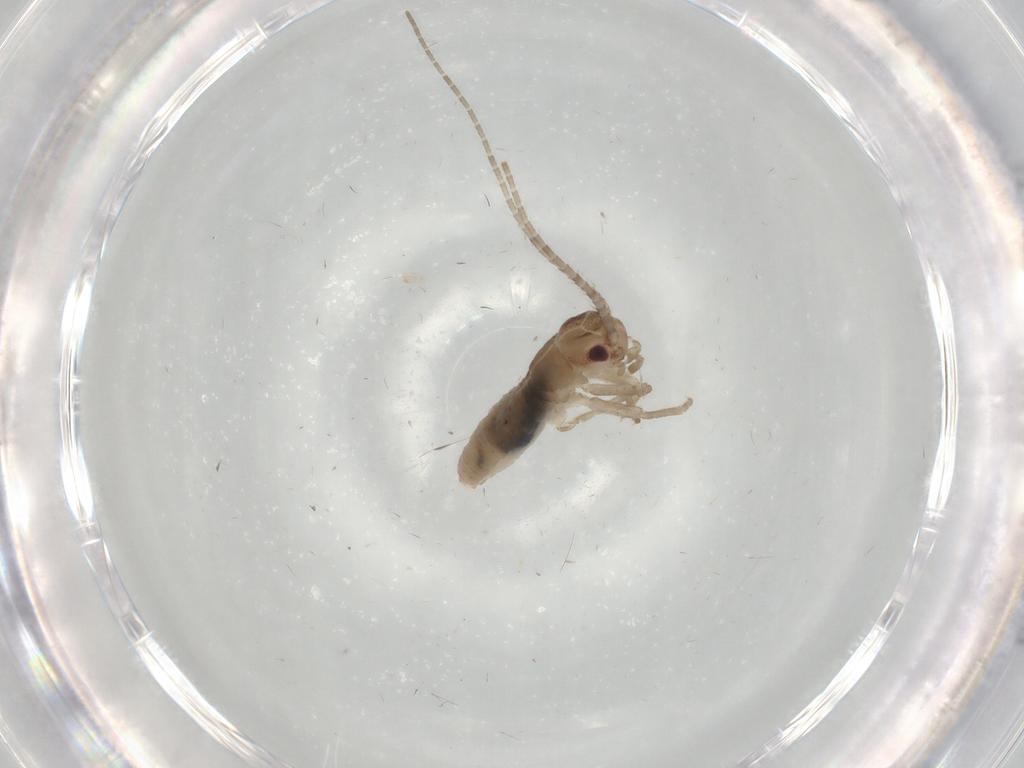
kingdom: Animalia
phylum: Arthropoda
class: Insecta
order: Orthoptera
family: Mogoplistidae
